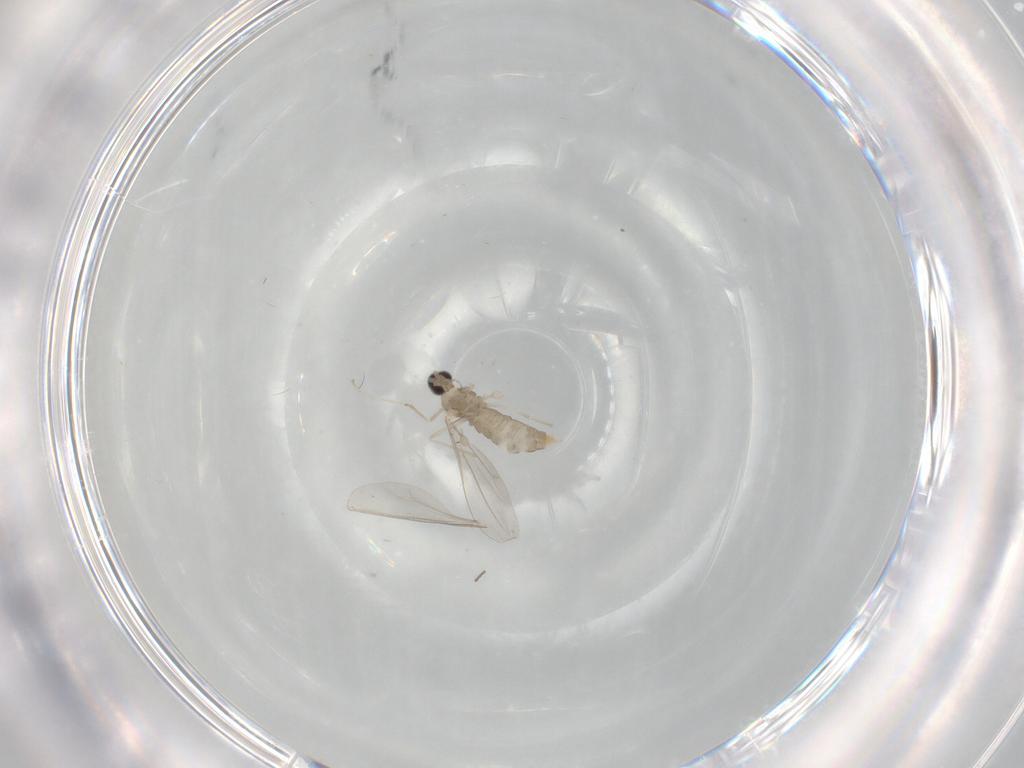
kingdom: Animalia
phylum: Arthropoda
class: Insecta
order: Diptera
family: Cecidomyiidae
